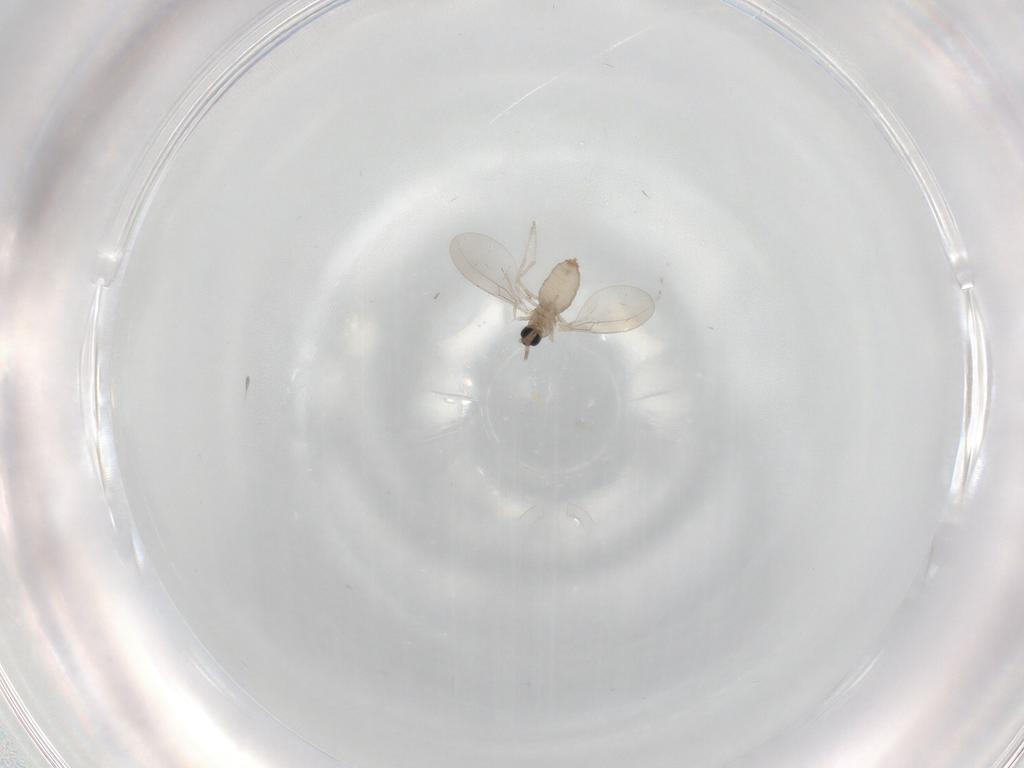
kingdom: Animalia
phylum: Arthropoda
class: Insecta
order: Diptera
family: Cecidomyiidae
